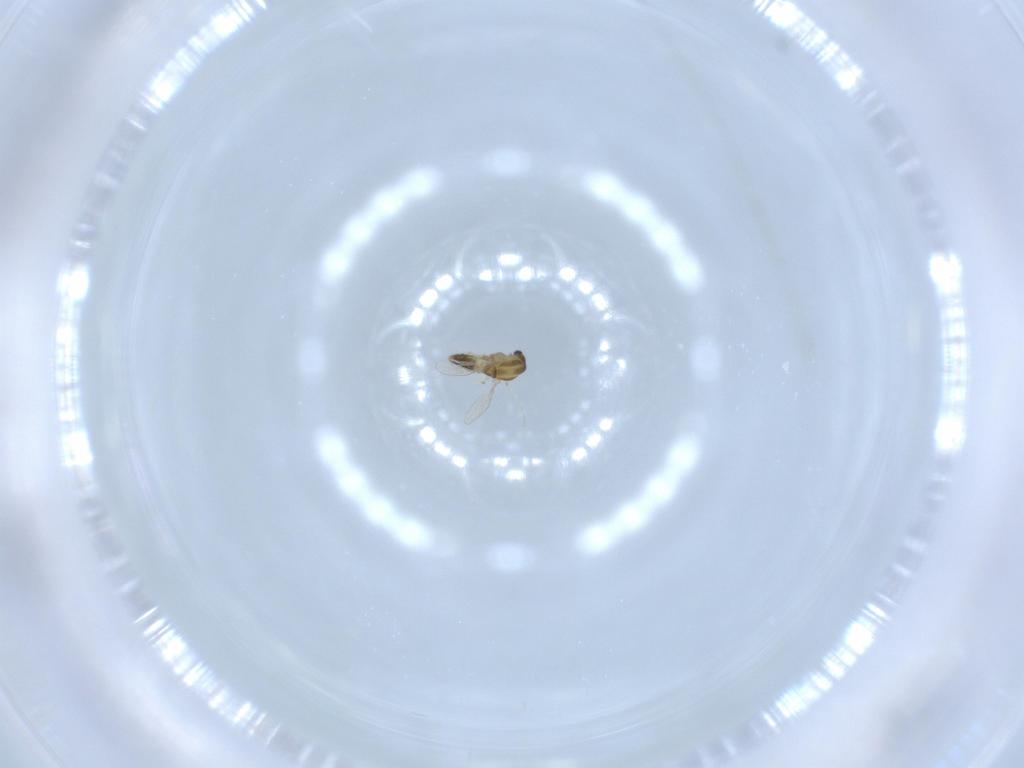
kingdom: Animalia
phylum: Arthropoda
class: Insecta
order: Diptera
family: Chironomidae
